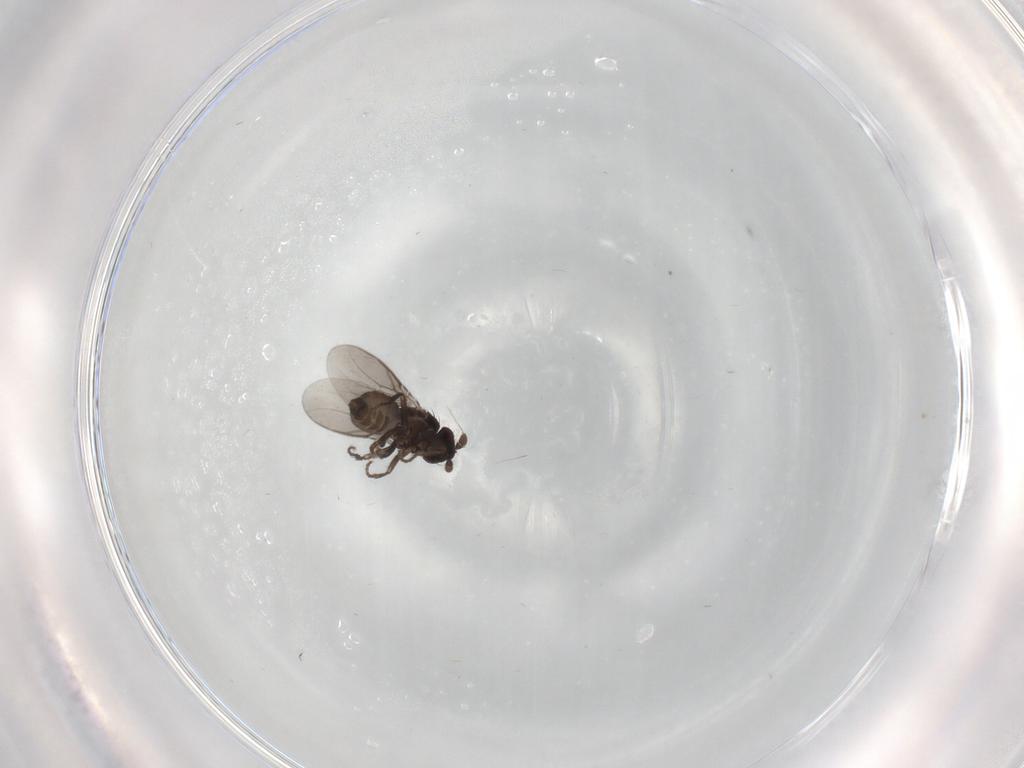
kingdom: Animalia
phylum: Arthropoda
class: Insecta
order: Diptera
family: Sphaeroceridae
